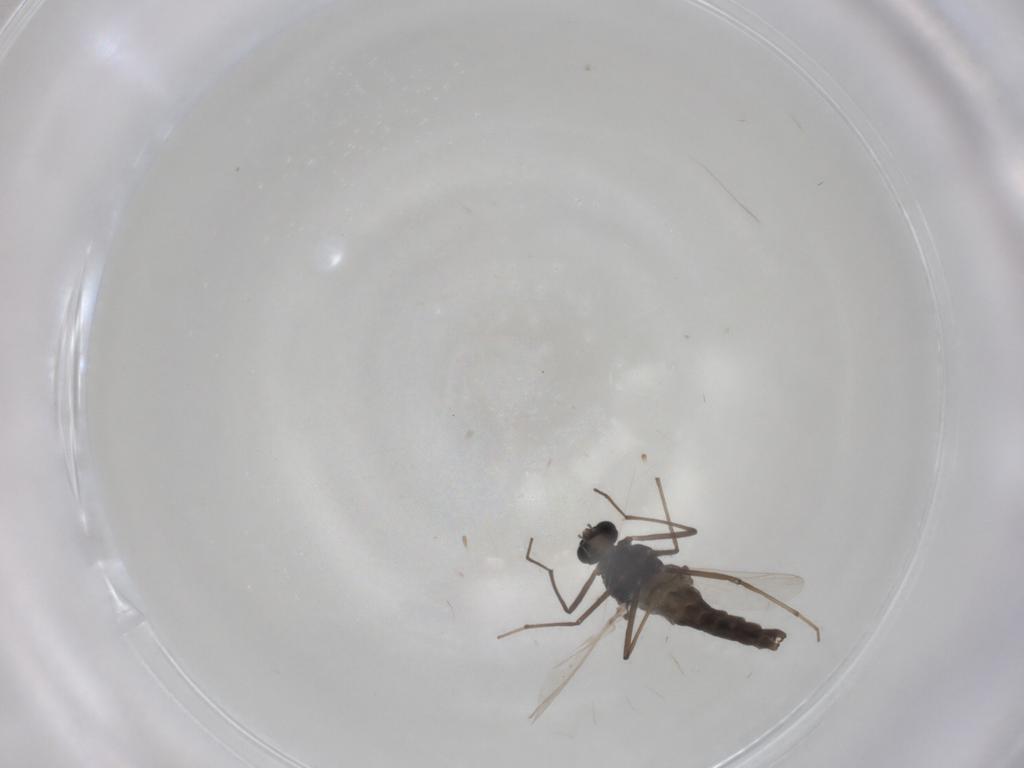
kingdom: Animalia
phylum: Arthropoda
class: Insecta
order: Diptera
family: Chironomidae
